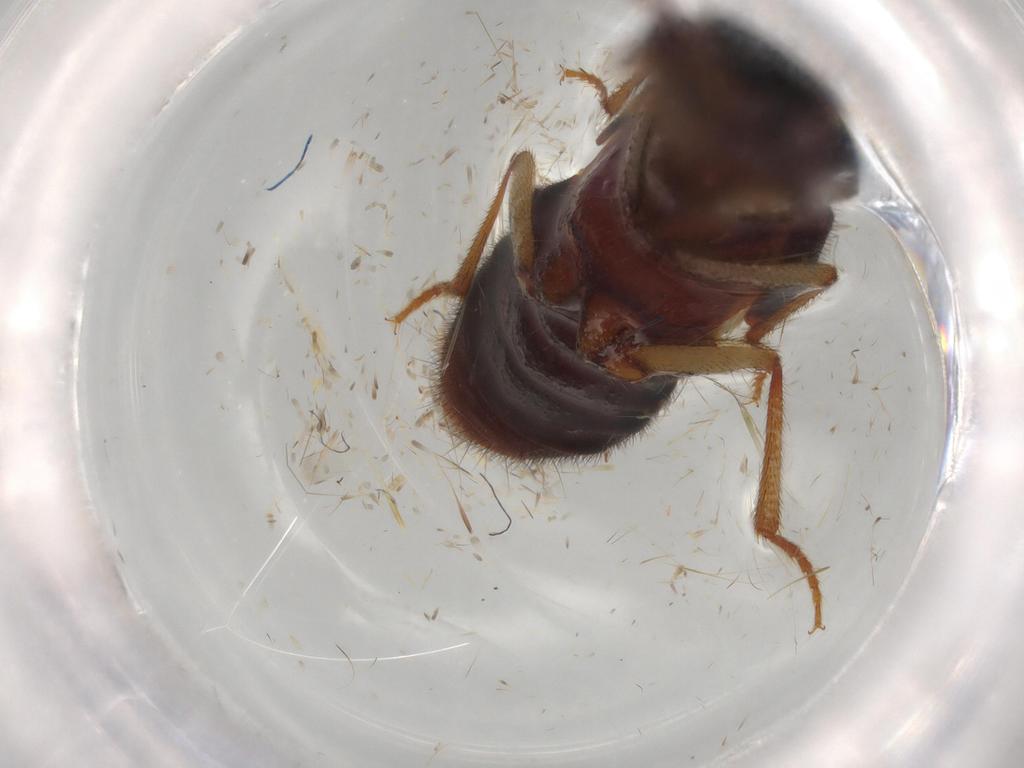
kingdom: Animalia
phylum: Arthropoda
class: Insecta
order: Coleoptera
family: Staphylinidae
